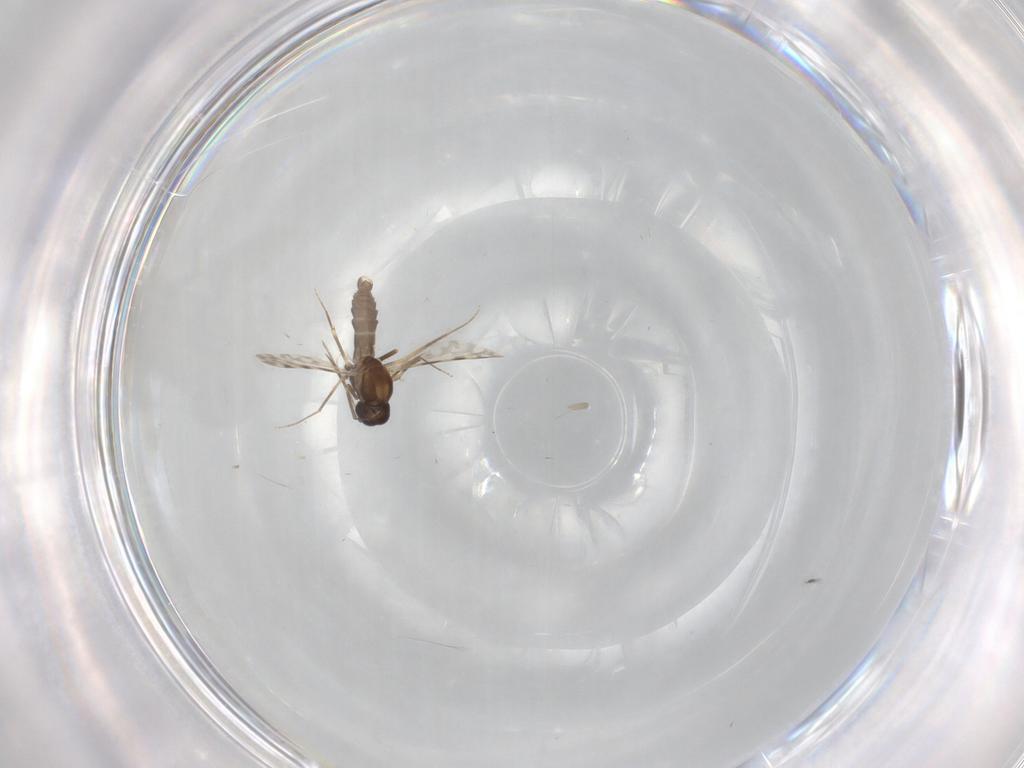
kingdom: Animalia
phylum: Arthropoda
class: Insecta
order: Diptera
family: Ceratopogonidae
